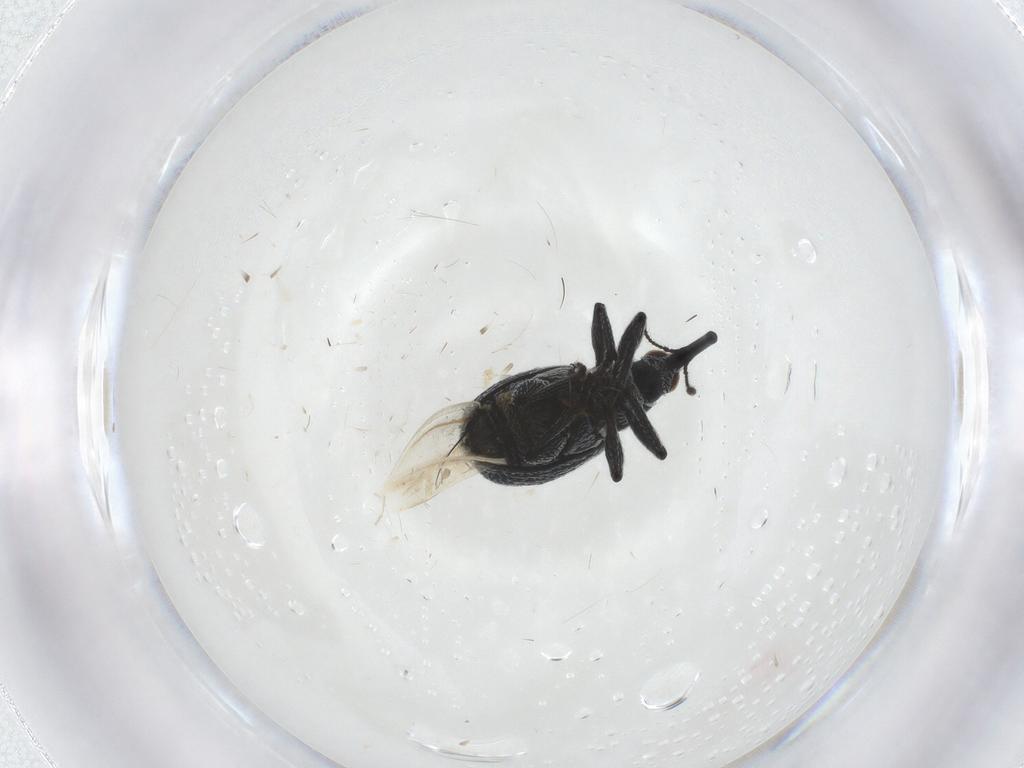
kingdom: Animalia
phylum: Arthropoda
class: Insecta
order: Coleoptera
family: Brentidae
